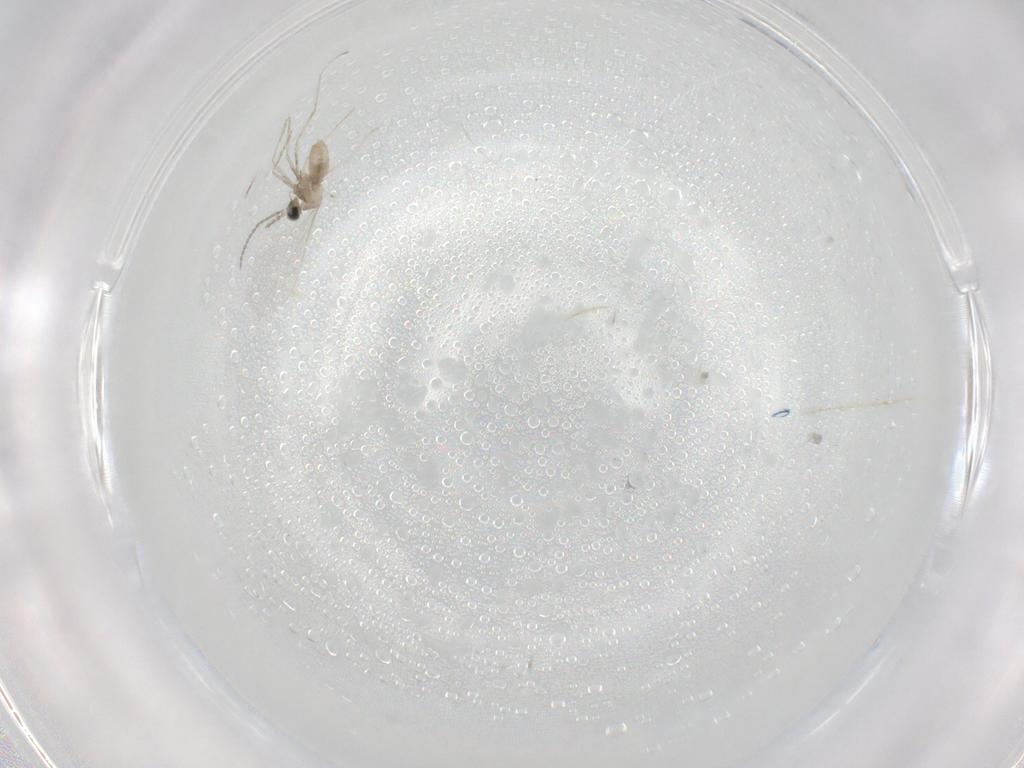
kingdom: Animalia
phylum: Arthropoda
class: Insecta
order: Diptera
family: Cecidomyiidae
